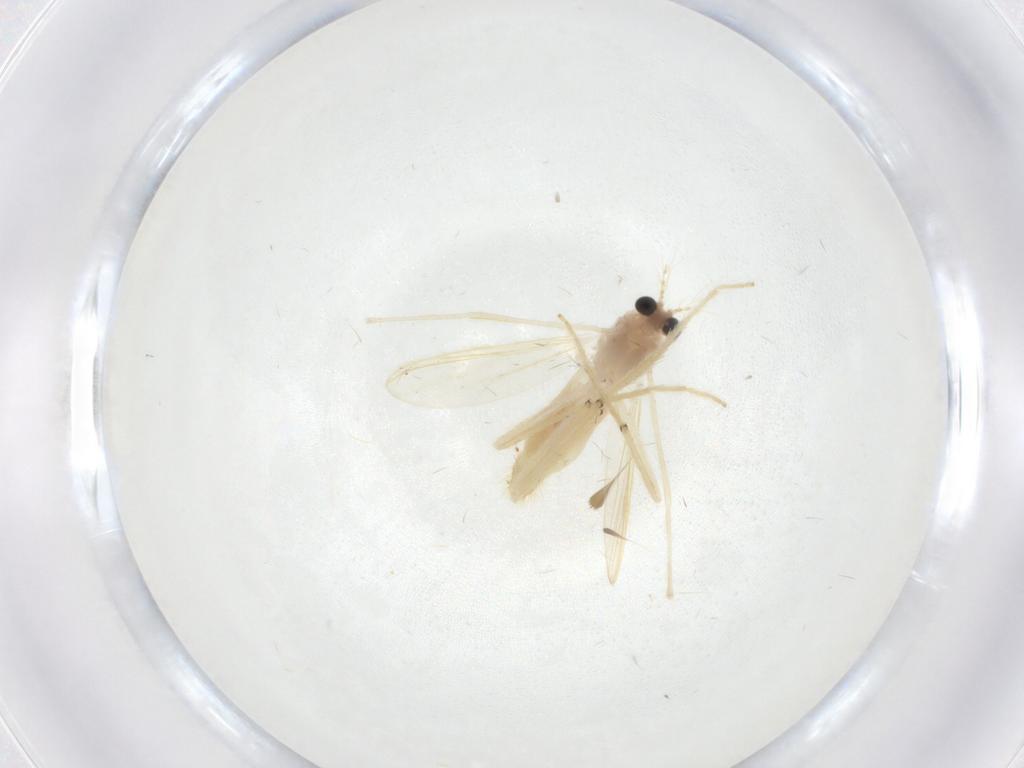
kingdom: Animalia
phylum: Arthropoda
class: Insecta
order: Diptera
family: Chironomidae
